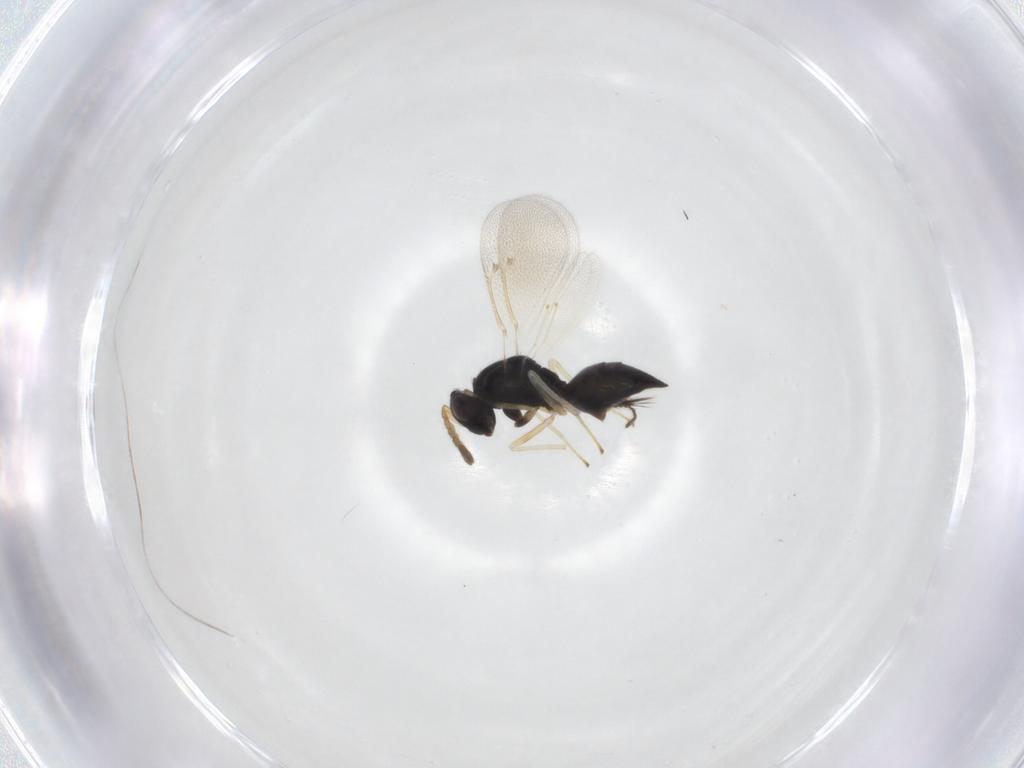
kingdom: Animalia
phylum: Arthropoda
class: Insecta
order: Hymenoptera
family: Eulophidae
